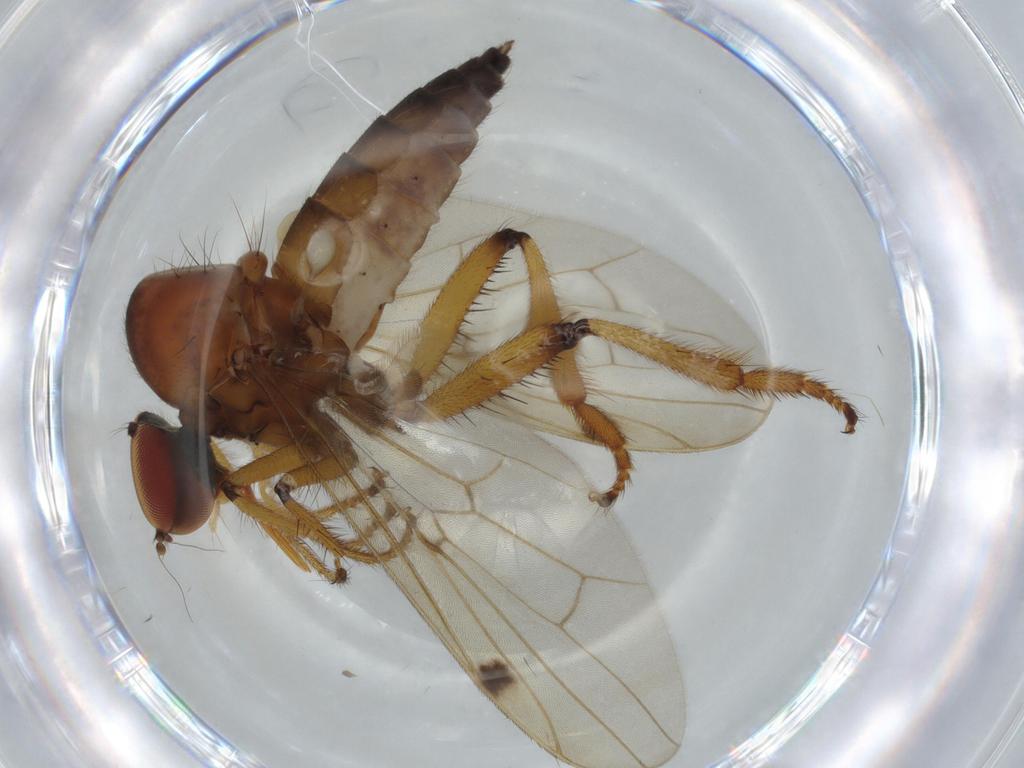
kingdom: Animalia
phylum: Arthropoda
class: Insecta
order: Diptera
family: Hybotidae
